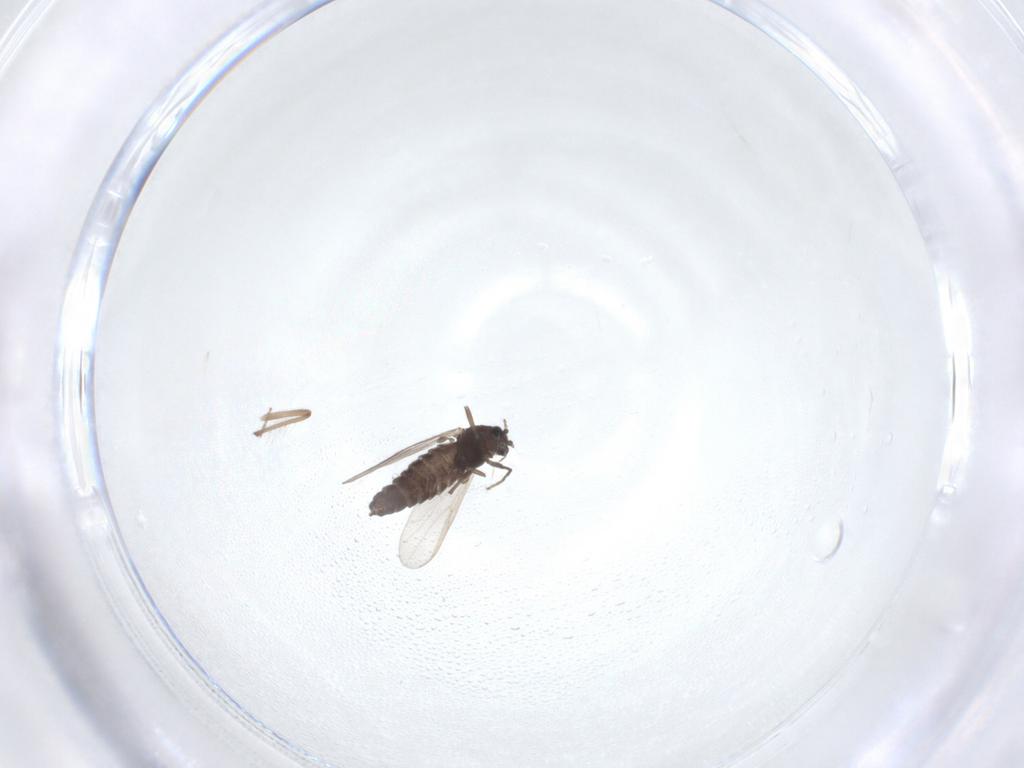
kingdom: Animalia
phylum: Arthropoda
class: Insecta
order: Diptera
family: Chironomidae
